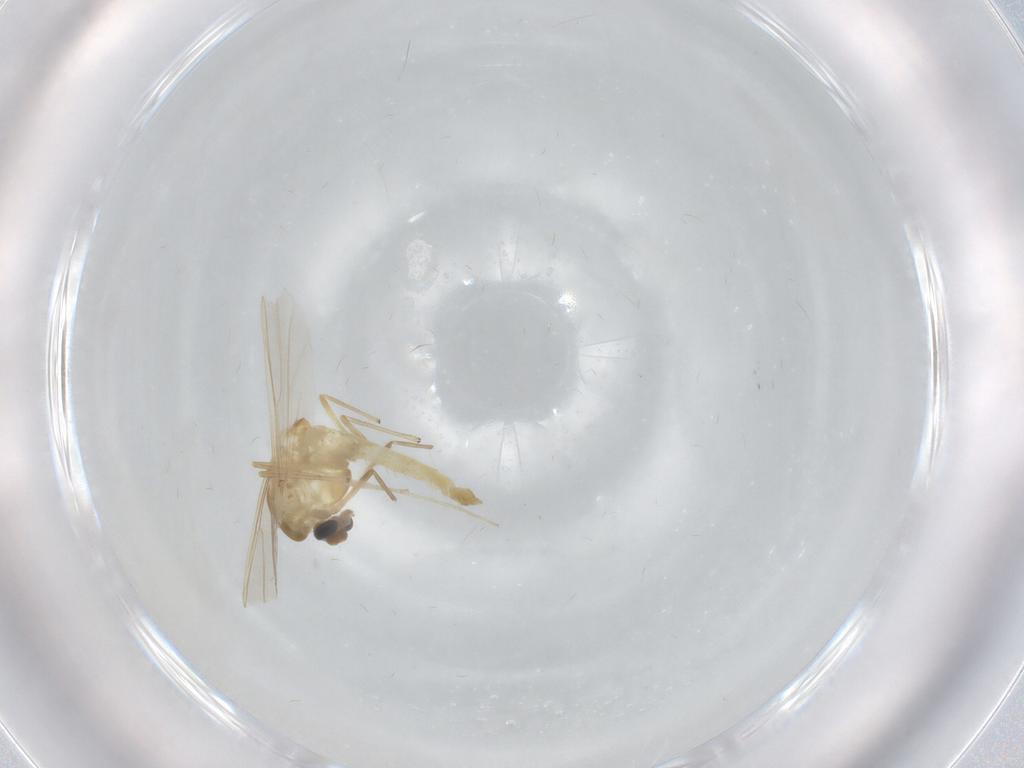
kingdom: Animalia
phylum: Arthropoda
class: Insecta
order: Diptera
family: Chironomidae
